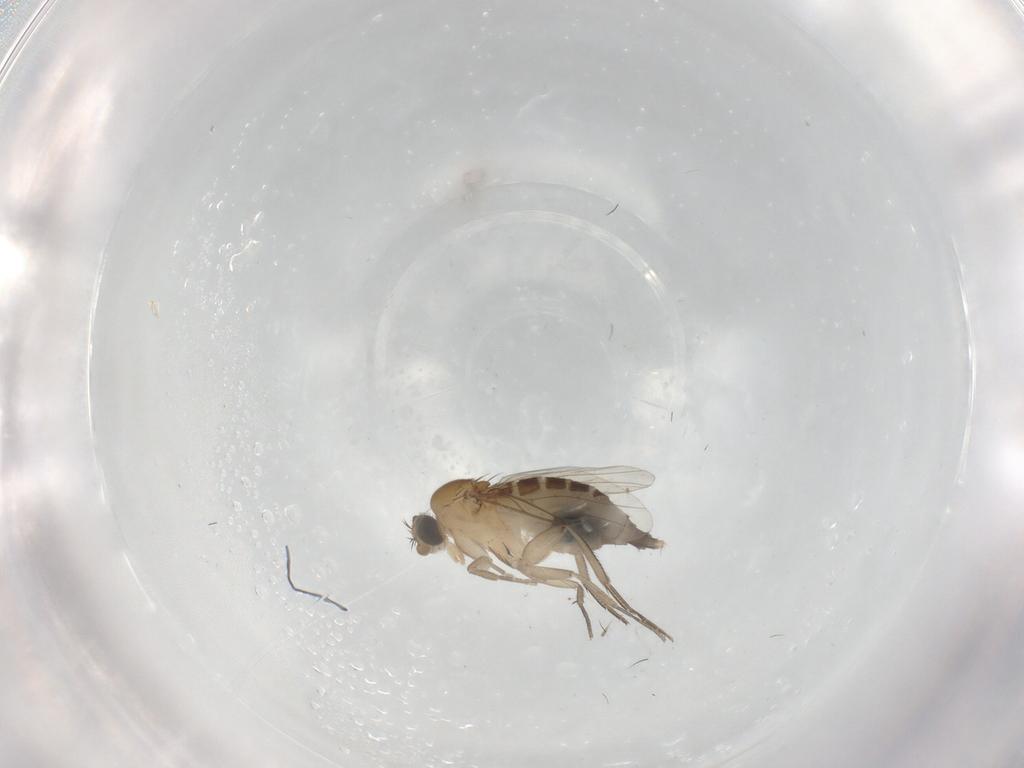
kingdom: Animalia
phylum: Arthropoda
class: Insecta
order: Diptera
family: Phoridae
